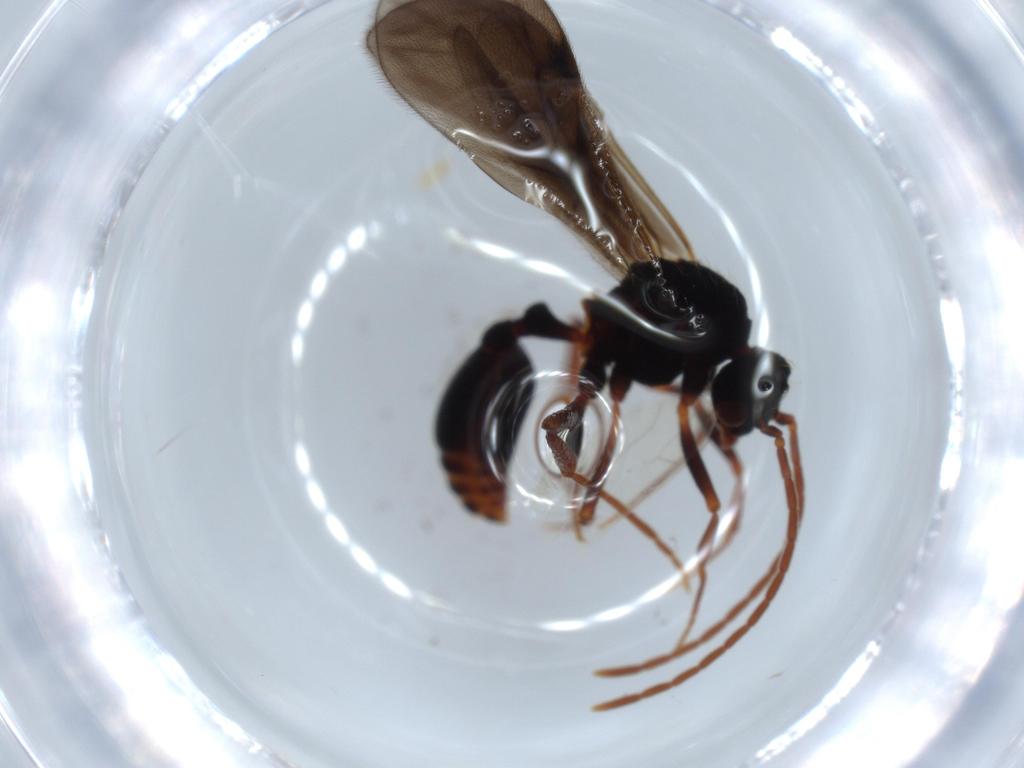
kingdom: Animalia
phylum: Arthropoda
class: Insecta
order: Hymenoptera
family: Formicidae
